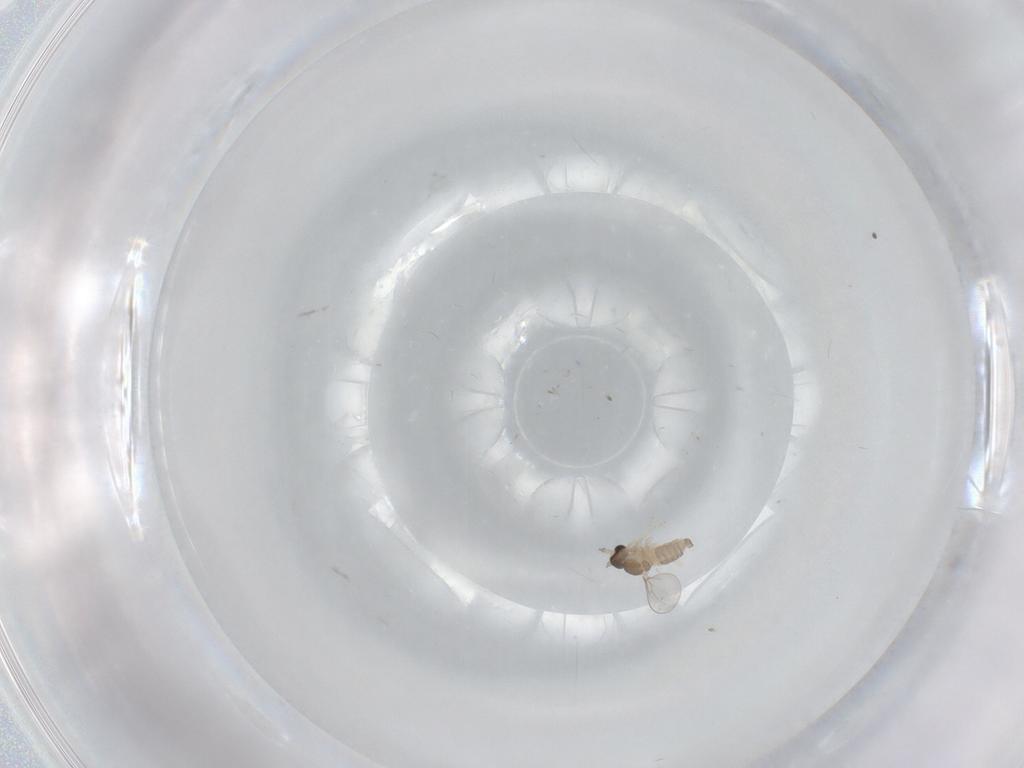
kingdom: Animalia
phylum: Arthropoda
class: Insecta
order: Diptera
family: Cecidomyiidae
